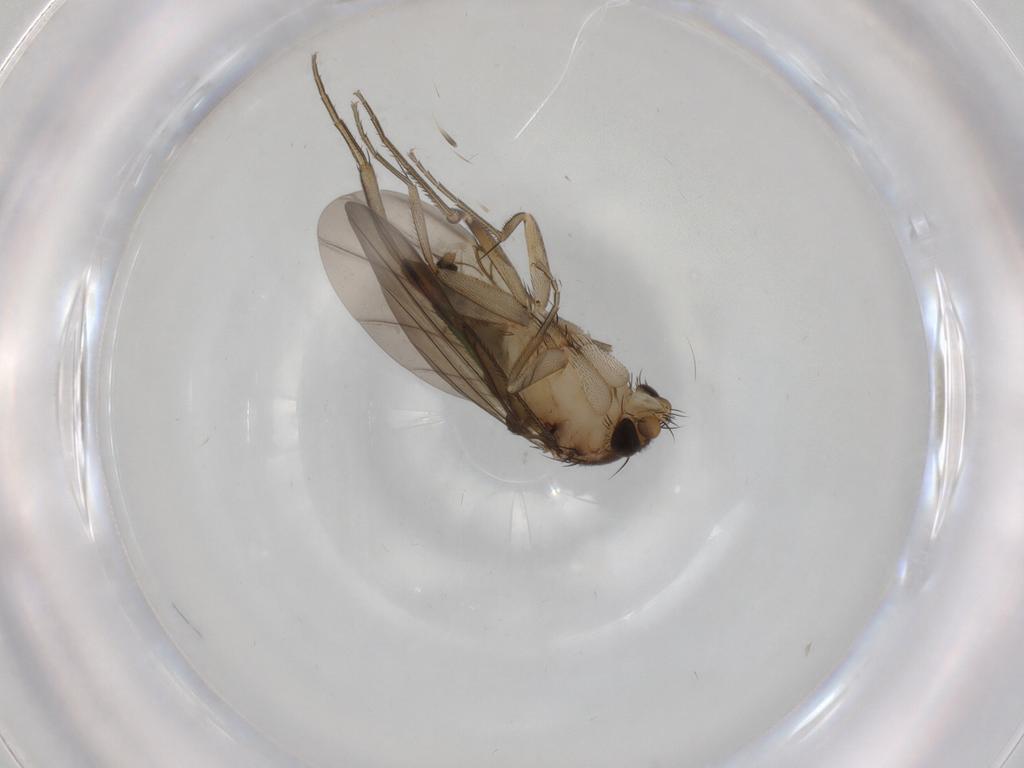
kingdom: Animalia
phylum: Arthropoda
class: Insecta
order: Diptera
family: Phoridae
